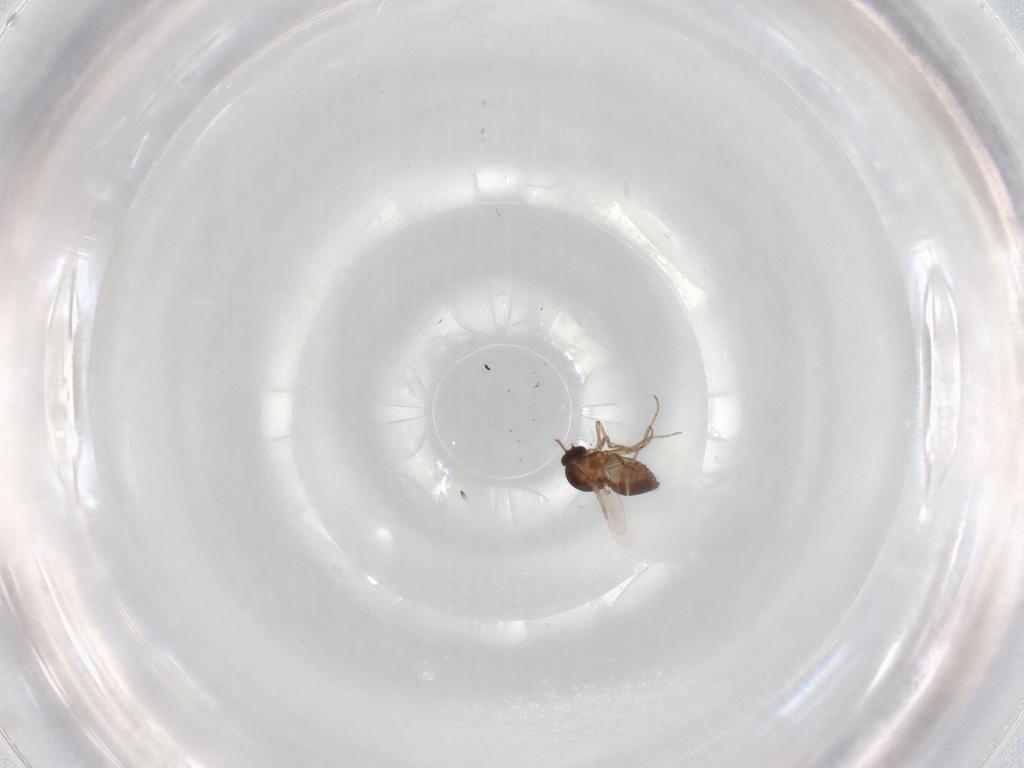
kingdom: Animalia
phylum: Arthropoda
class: Insecta
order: Diptera
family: Ceratopogonidae
